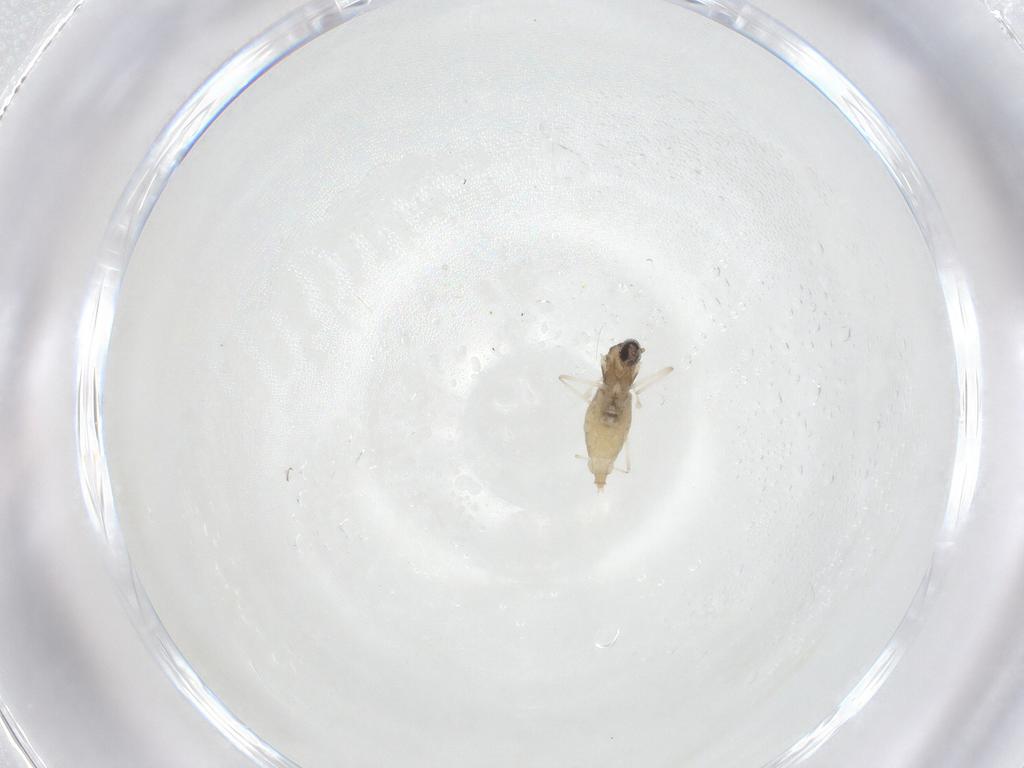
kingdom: Animalia
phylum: Arthropoda
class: Insecta
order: Diptera
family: Cecidomyiidae
